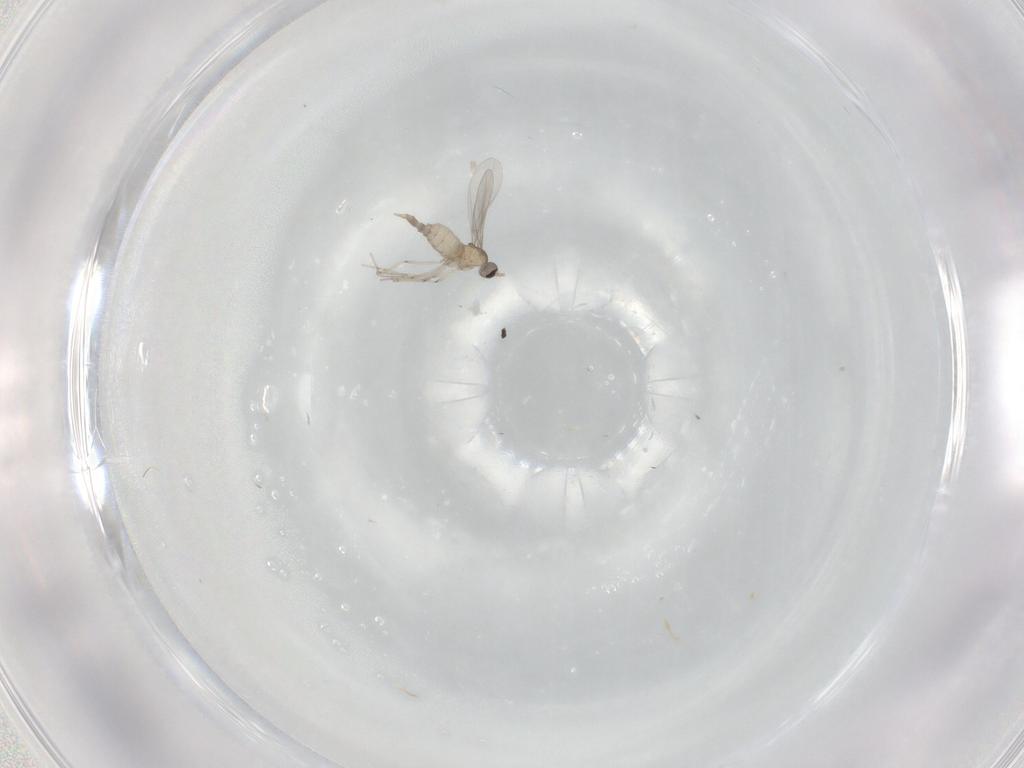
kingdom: Animalia
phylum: Arthropoda
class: Insecta
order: Diptera
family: Cecidomyiidae
